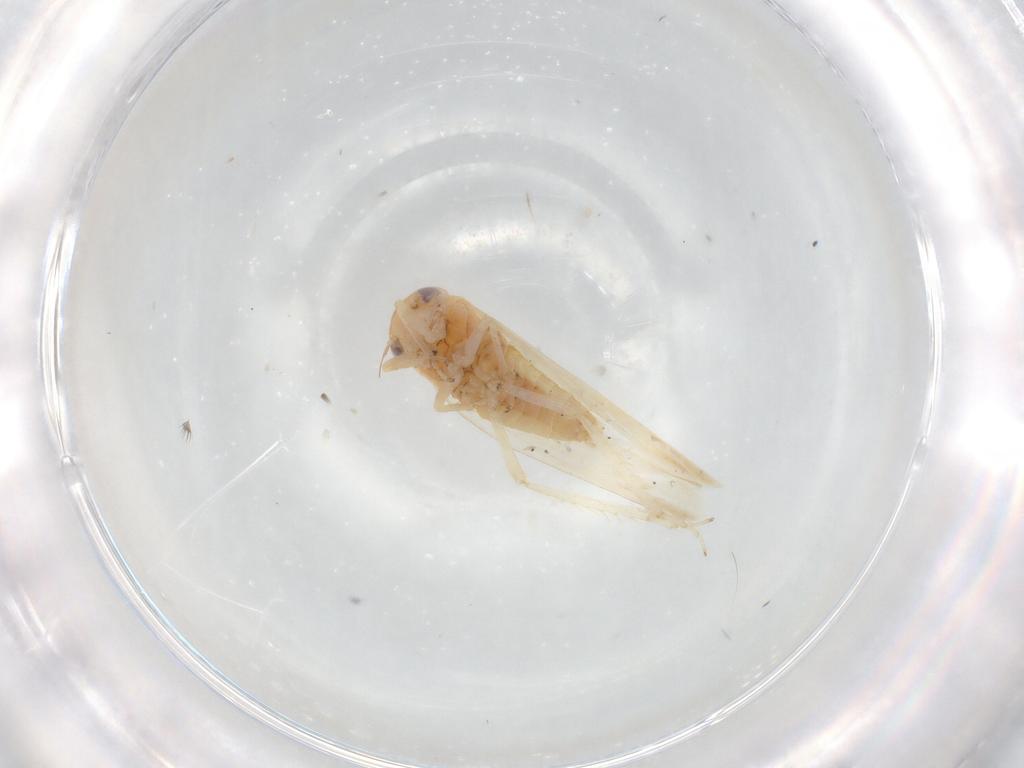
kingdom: Animalia
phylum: Arthropoda
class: Insecta
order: Hemiptera
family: Cicadellidae
